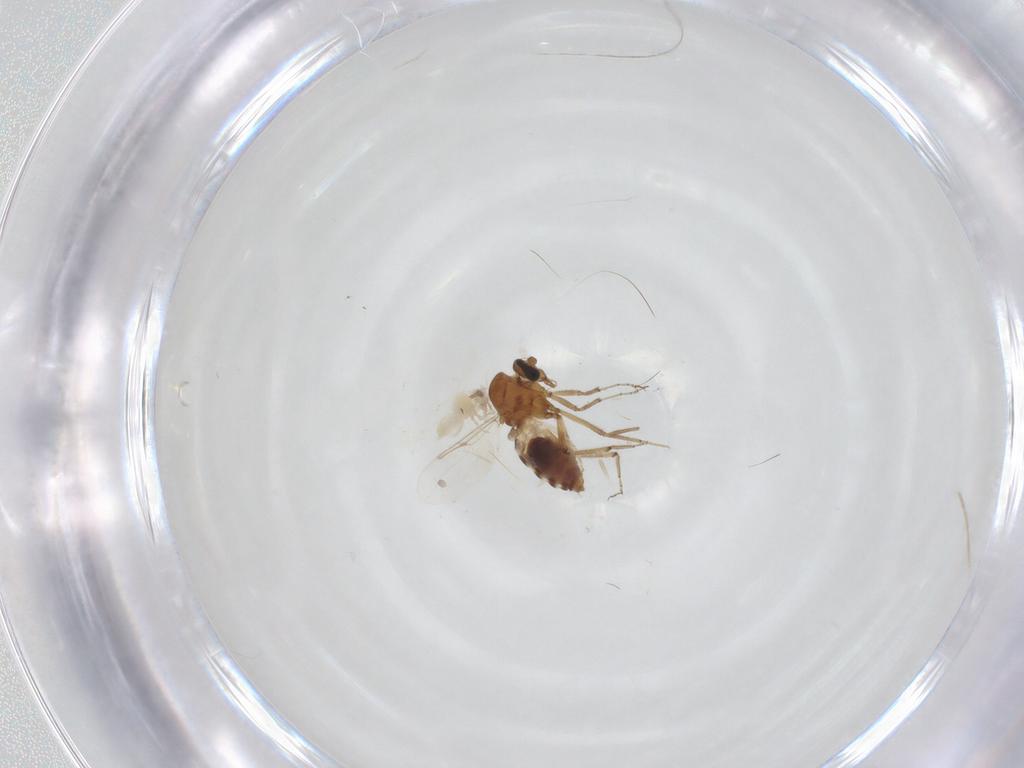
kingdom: Animalia
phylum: Arthropoda
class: Insecta
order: Diptera
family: Ceratopogonidae
